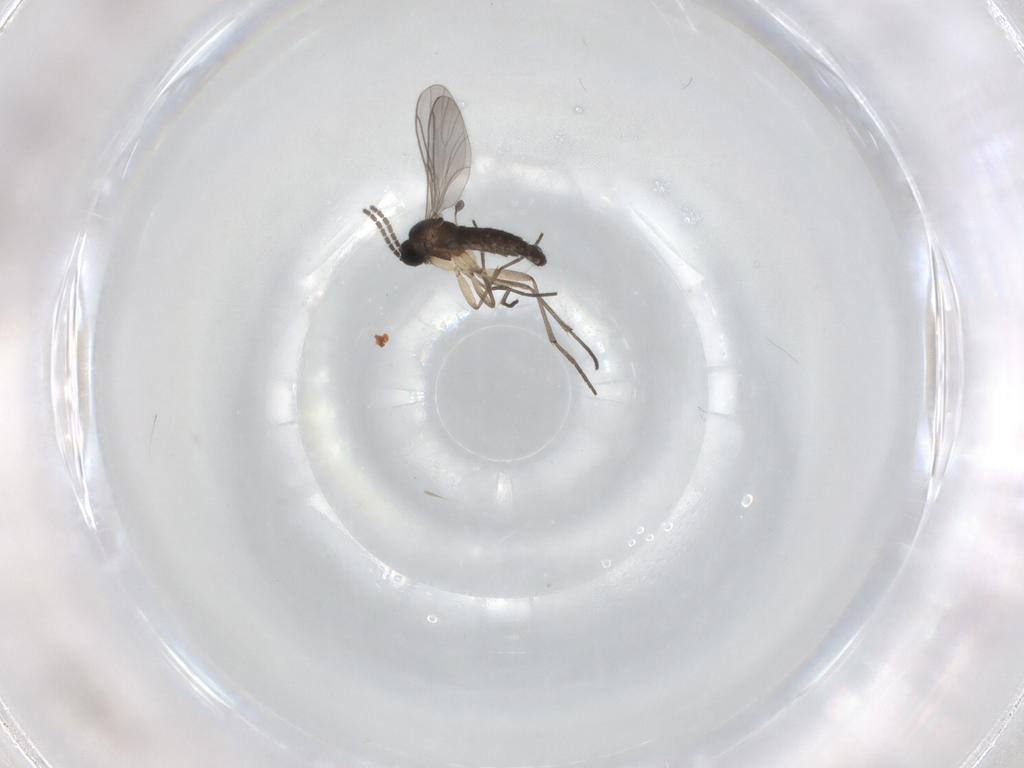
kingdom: Animalia
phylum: Arthropoda
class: Insecta
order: Diptera
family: Sciaridae
